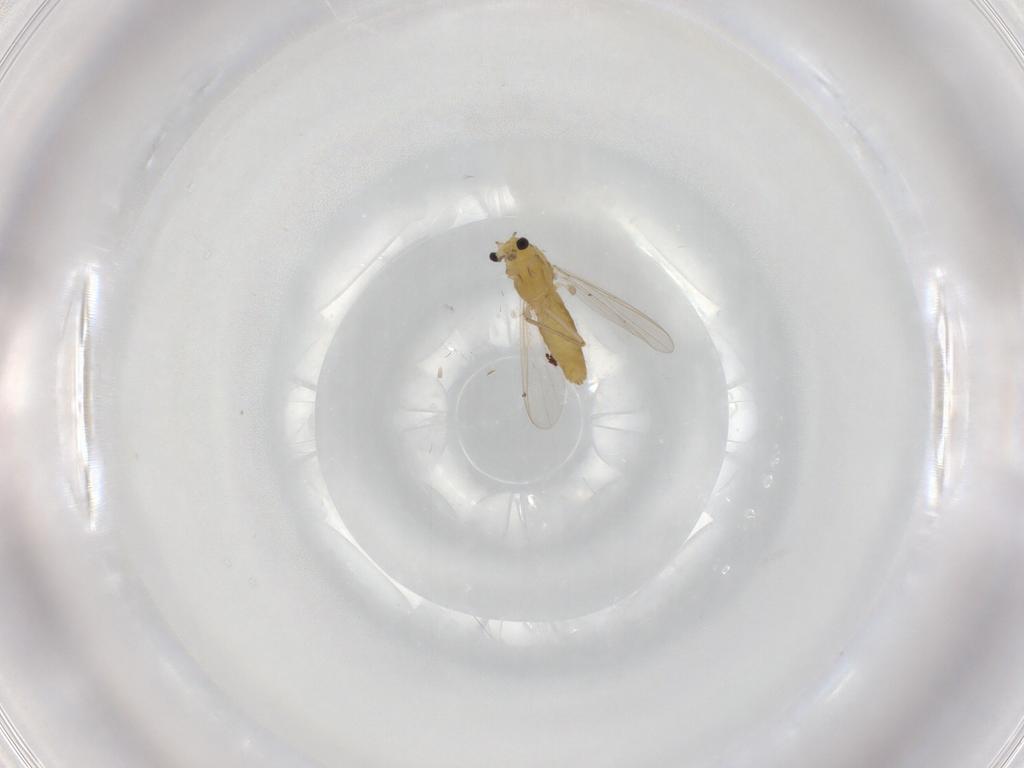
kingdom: Animalia
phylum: Arthropoda
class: Insecta
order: Diptera
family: Chironomidae
